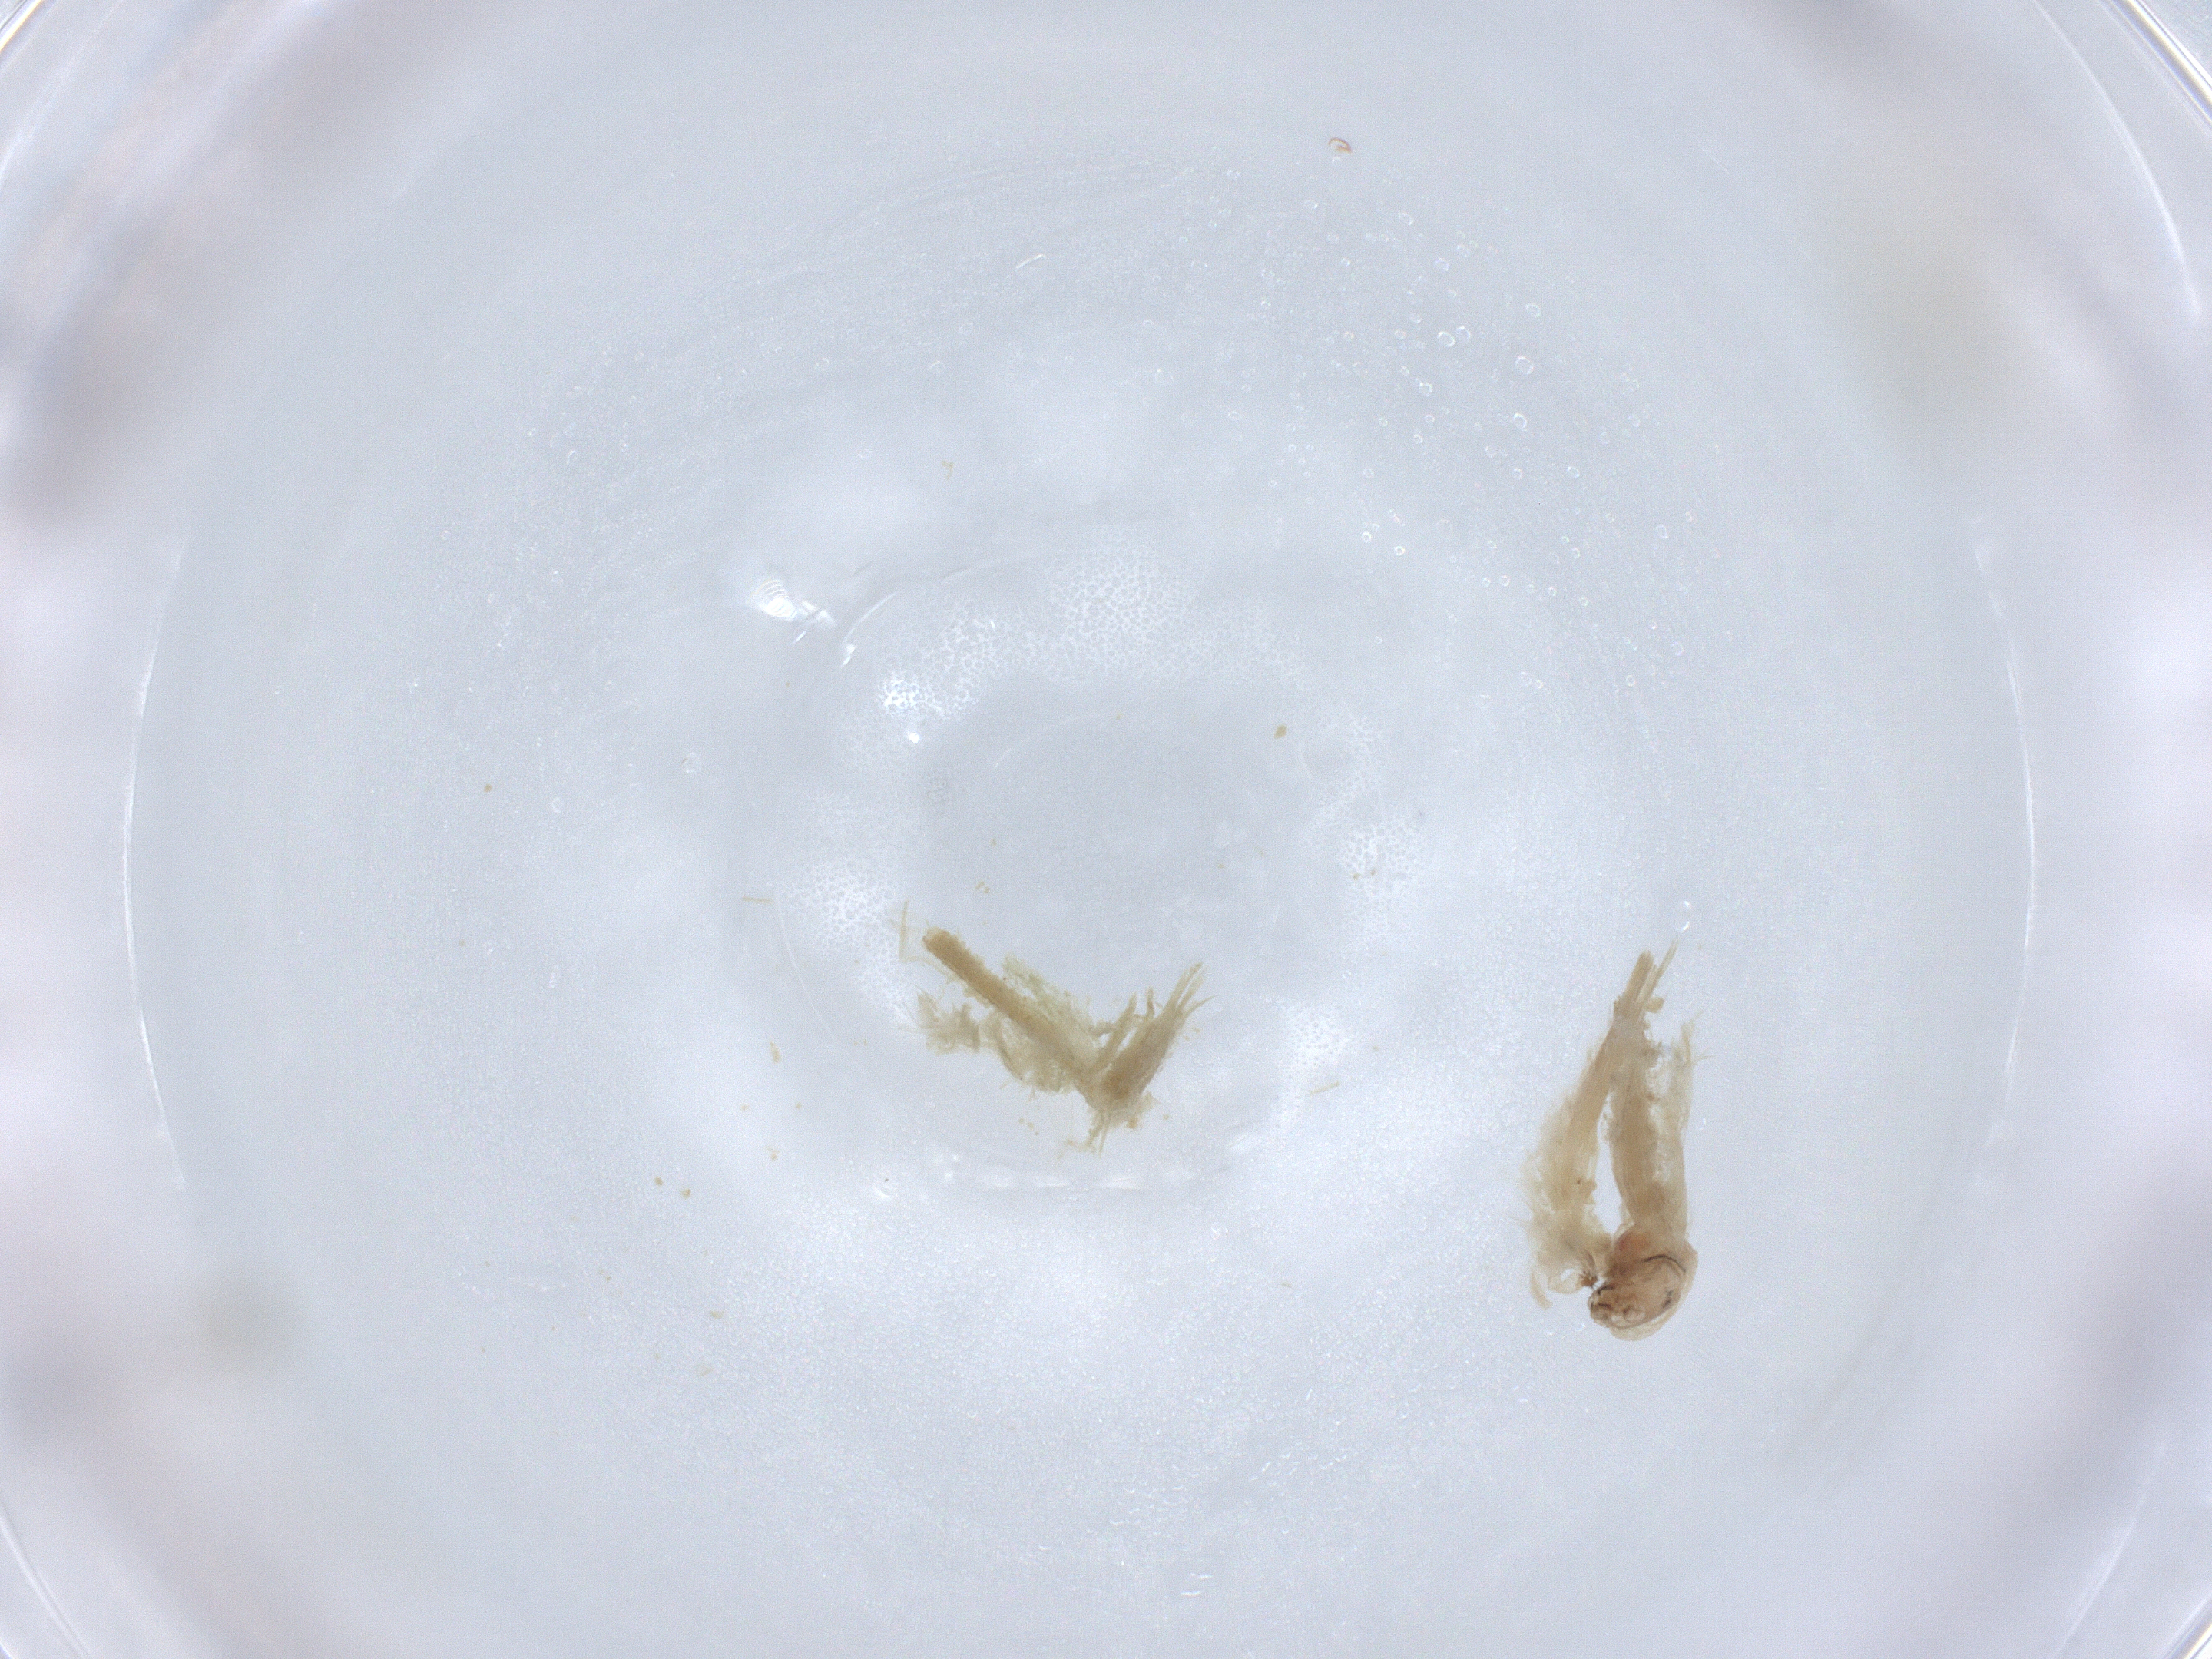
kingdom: Animalia
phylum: Arthropoda
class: Insecta
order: Diptera
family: Chironomidae
